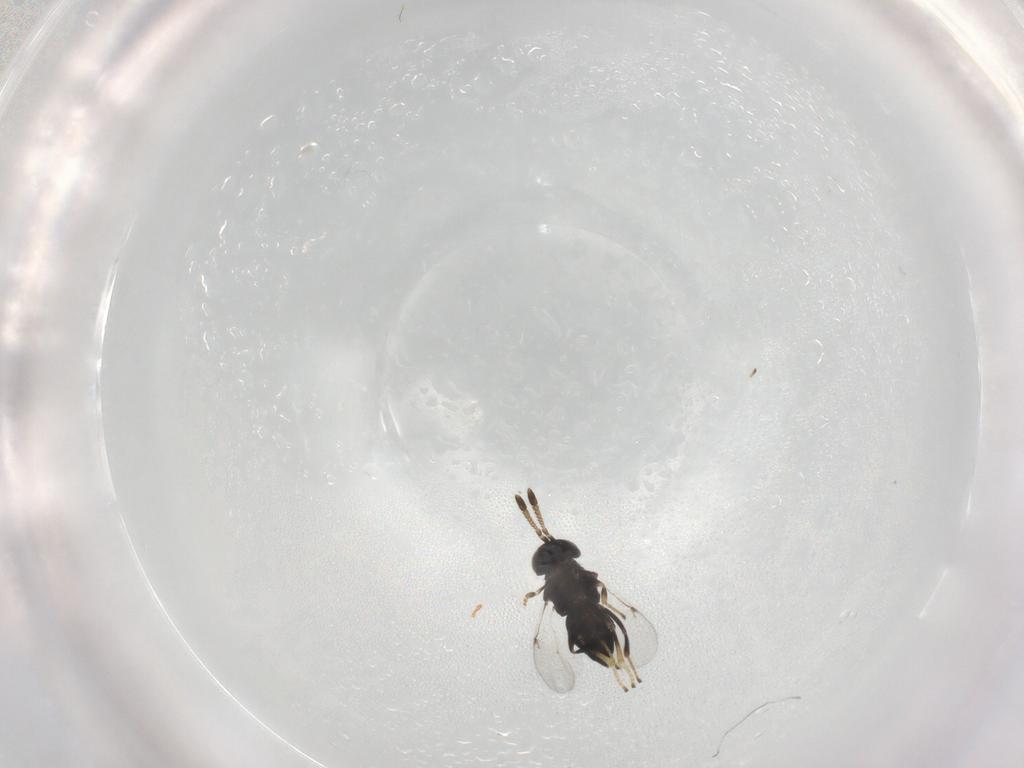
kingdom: Animalia
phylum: Arthropoda
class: Insecta
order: Hymenoptera
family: Encyrtidae
